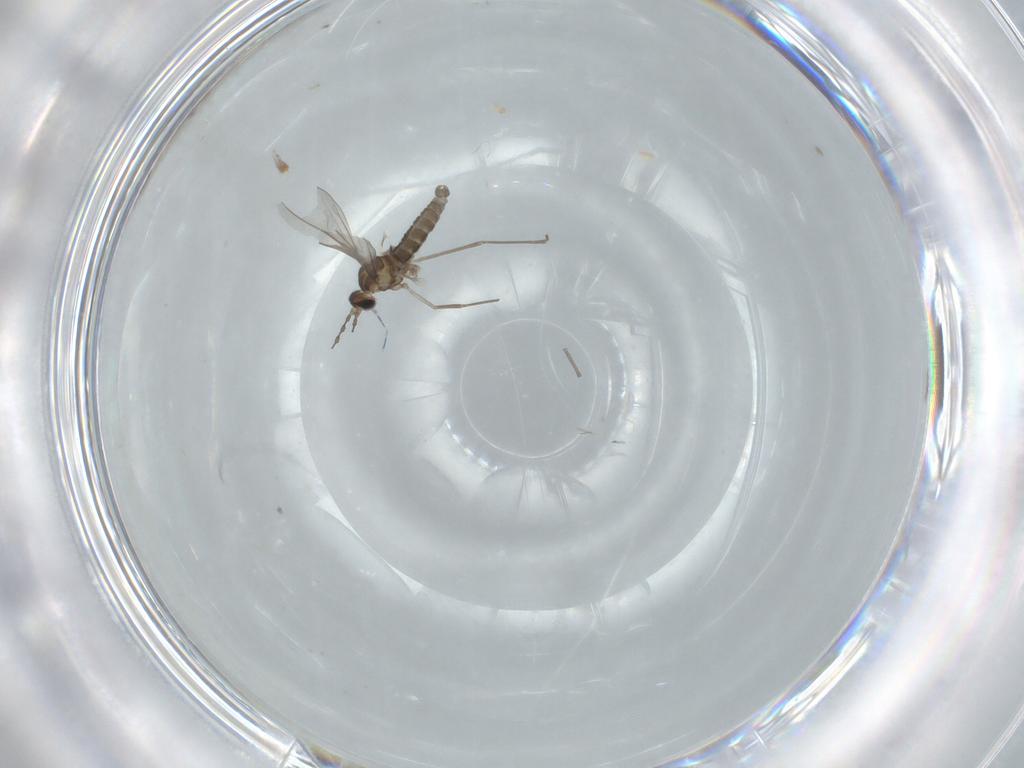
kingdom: Animalia
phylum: Arthropoda
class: Insecta
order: Diptera
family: Cecidomyiidae
